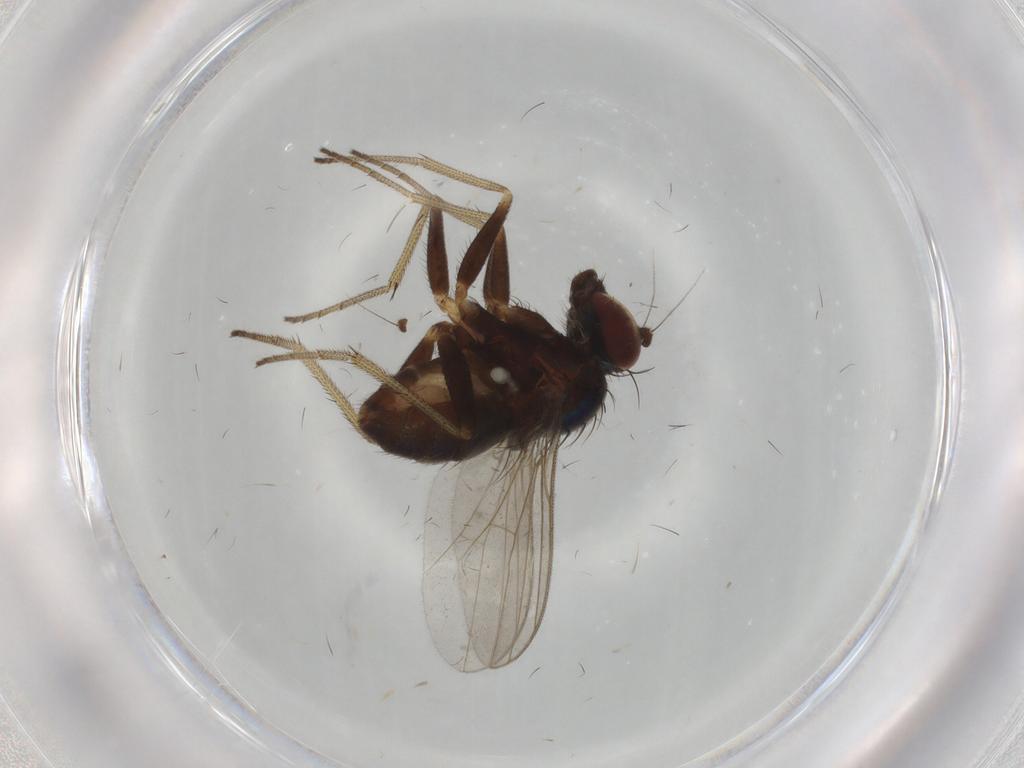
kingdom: Animalia
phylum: Arthropoda
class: Insecta
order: Diptera
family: Dolichopodidae
